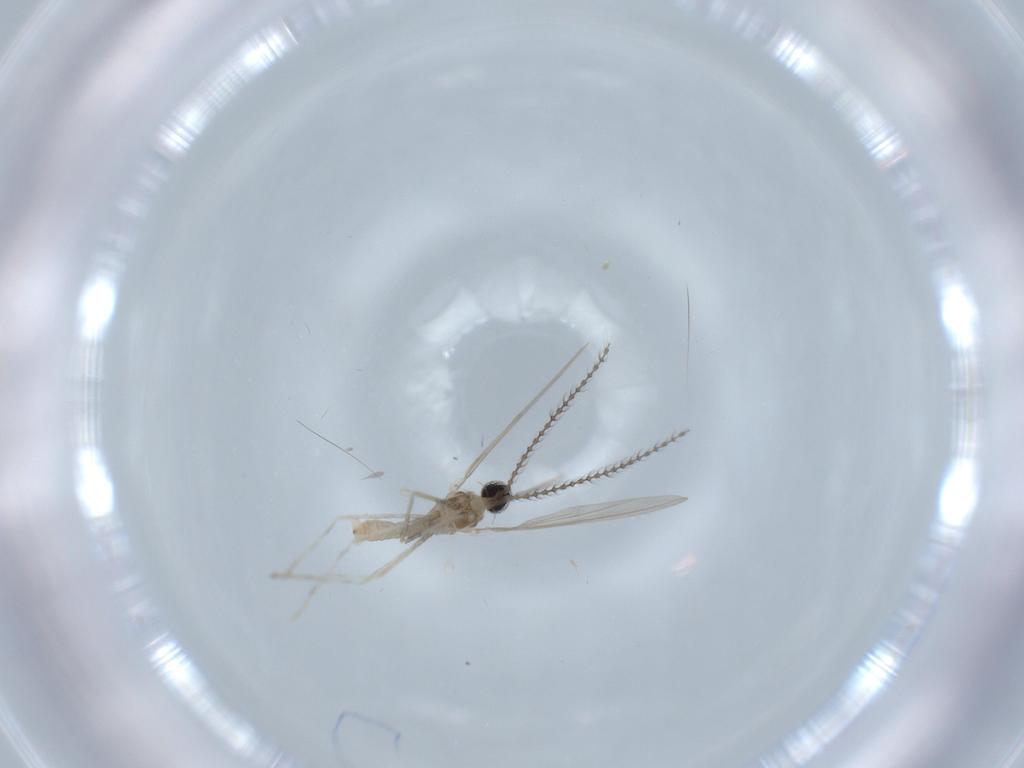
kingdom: Animalia
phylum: Arthropoda
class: Insecta
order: Diptera
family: Cecidomyiidae
